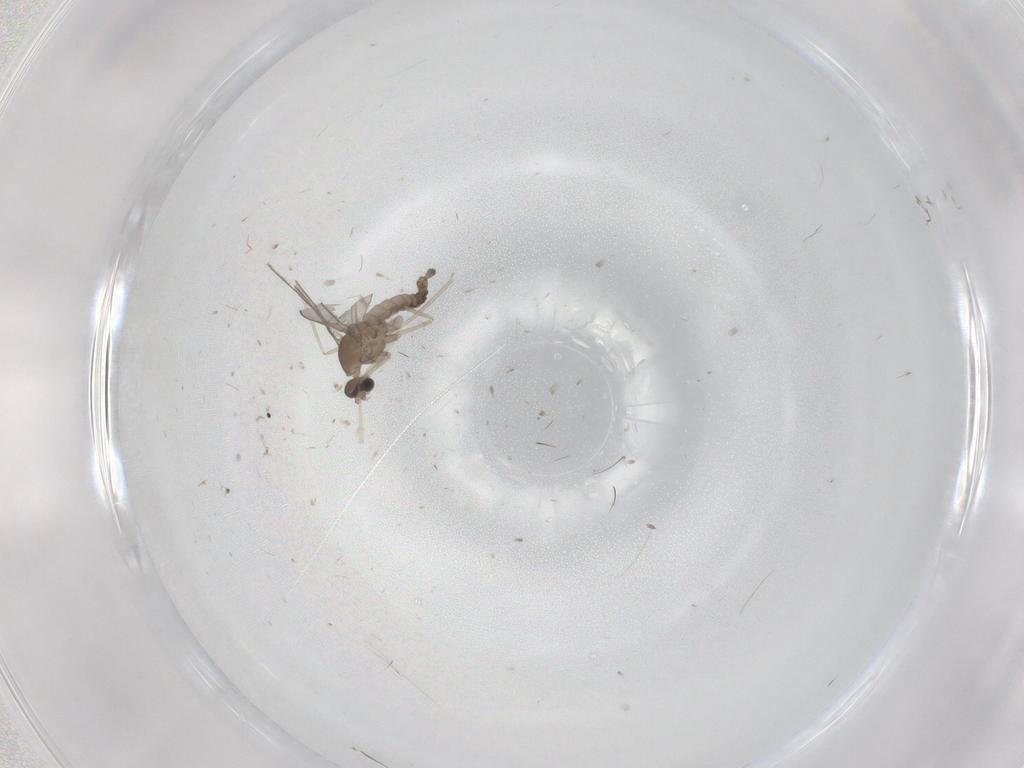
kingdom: Animalia
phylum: Arthropoda
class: Insecta
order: Diptera
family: Cecidomyiidae
